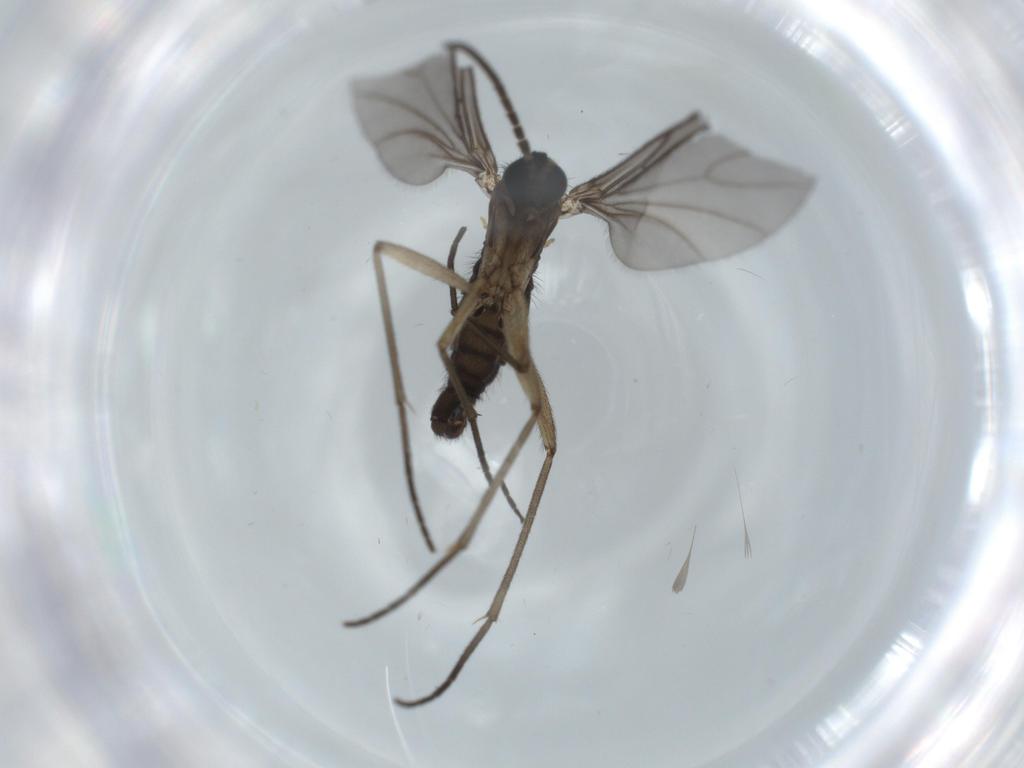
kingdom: Animalia
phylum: Arthropoda
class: Insecta
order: Diptera
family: Sciaridae
